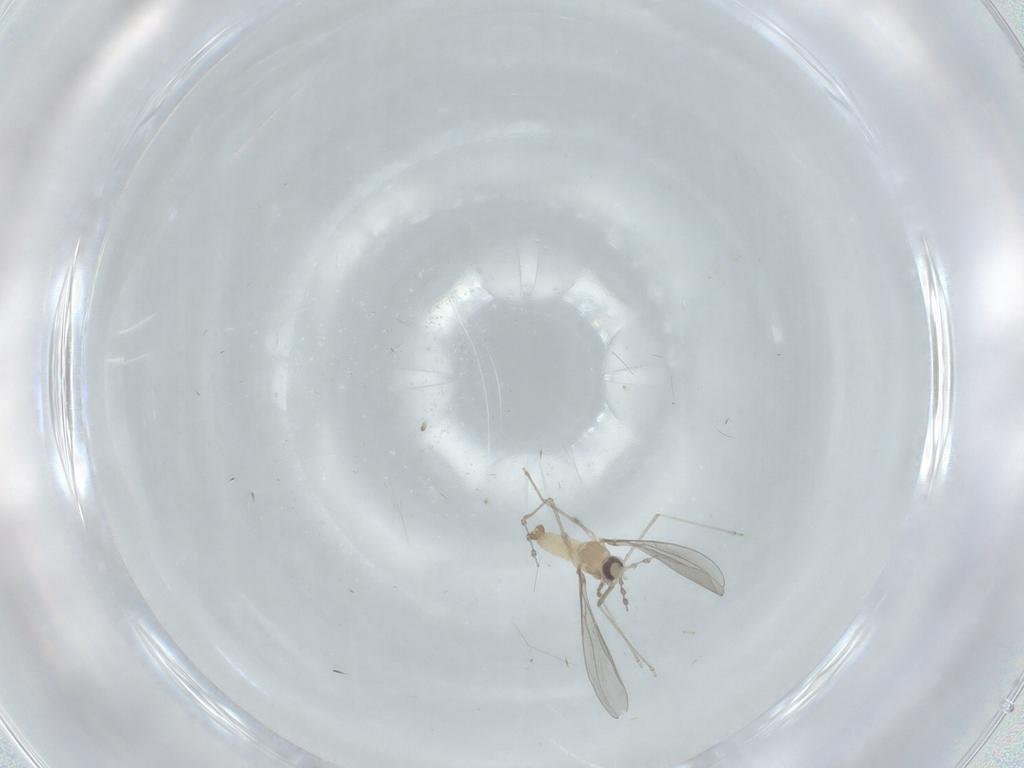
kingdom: Animalia
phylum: Arthropoda
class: Insecta
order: Diptera
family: Cecidomyiidae
